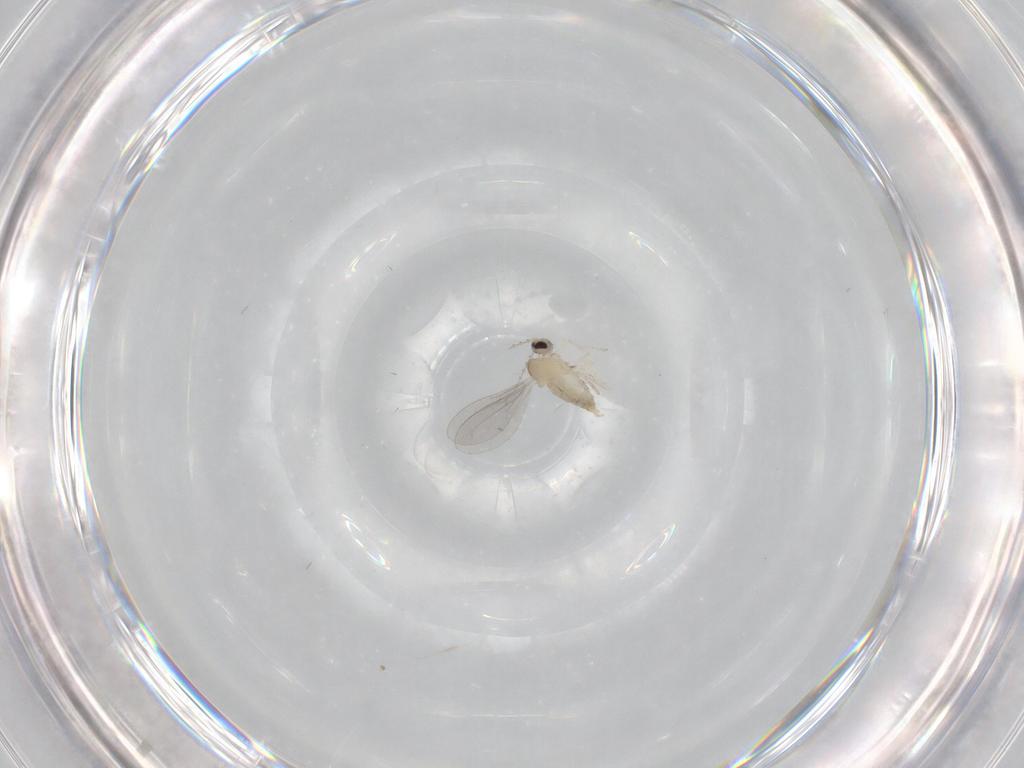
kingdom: Animalia
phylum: Arthropoda
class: Insecta
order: Diptera
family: Cecidomyiidae
